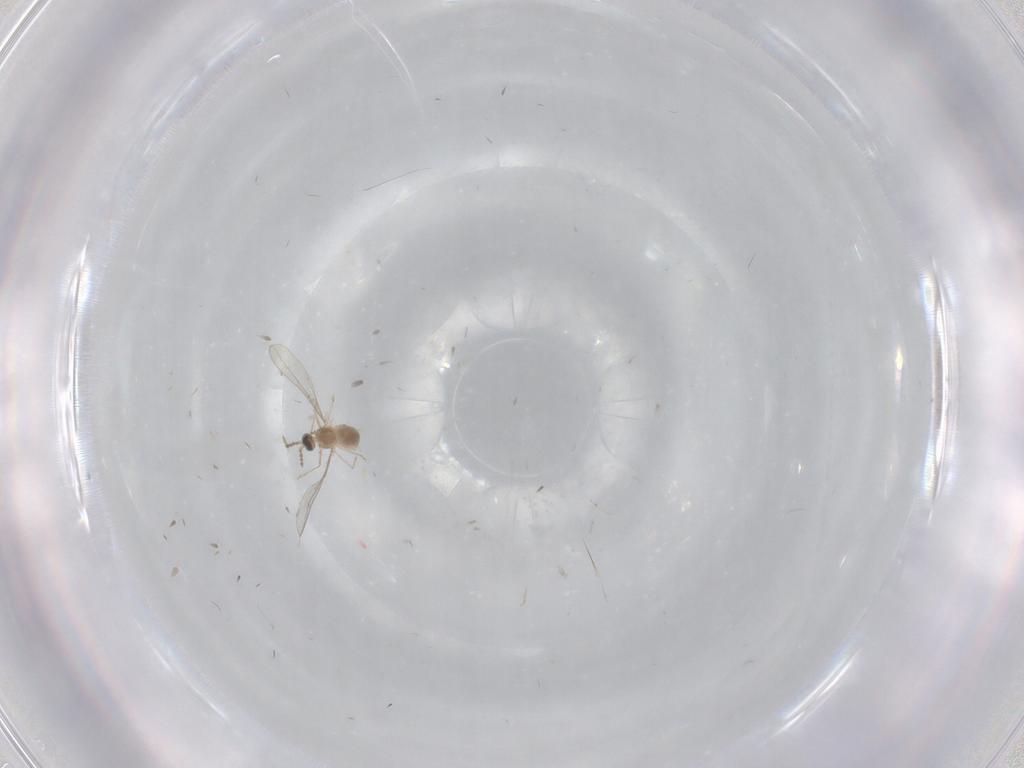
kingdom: Animalia
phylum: Arthropoda
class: Insecta
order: Diptera
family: Cecidomyiidae
